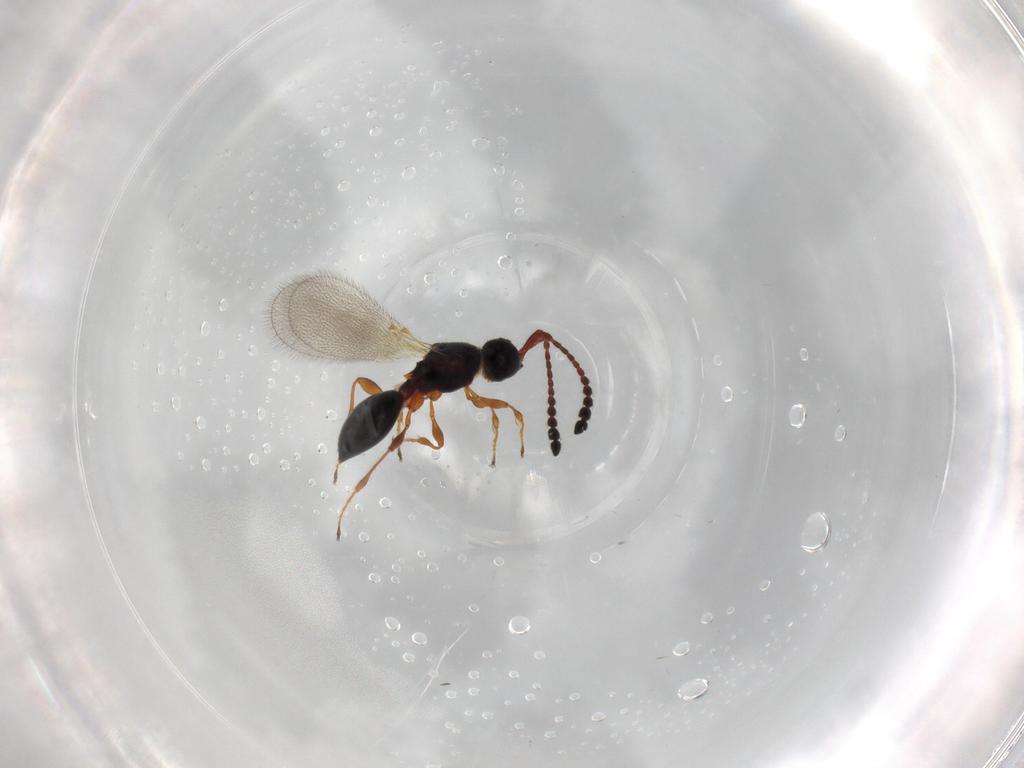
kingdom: Animalia
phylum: Arthropoda
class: Insecta
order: Hymenoptera
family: Diapriidae
